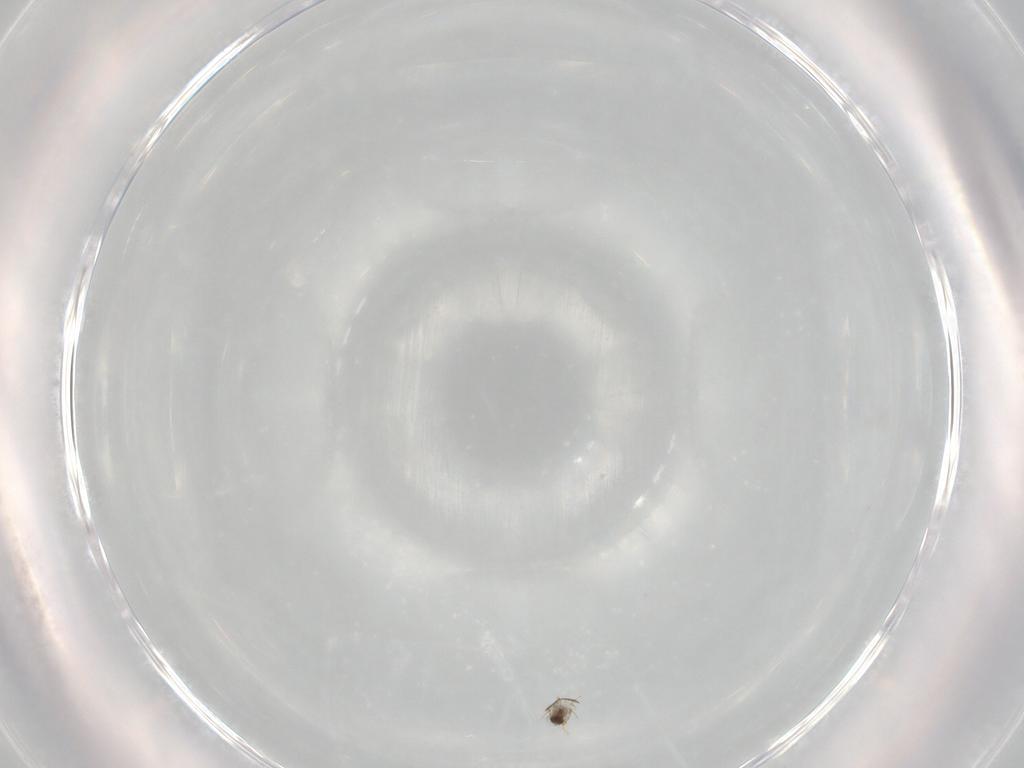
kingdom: Animalia
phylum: Arthropoda
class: Insecta
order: Hymenoptera
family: Mymaridae
